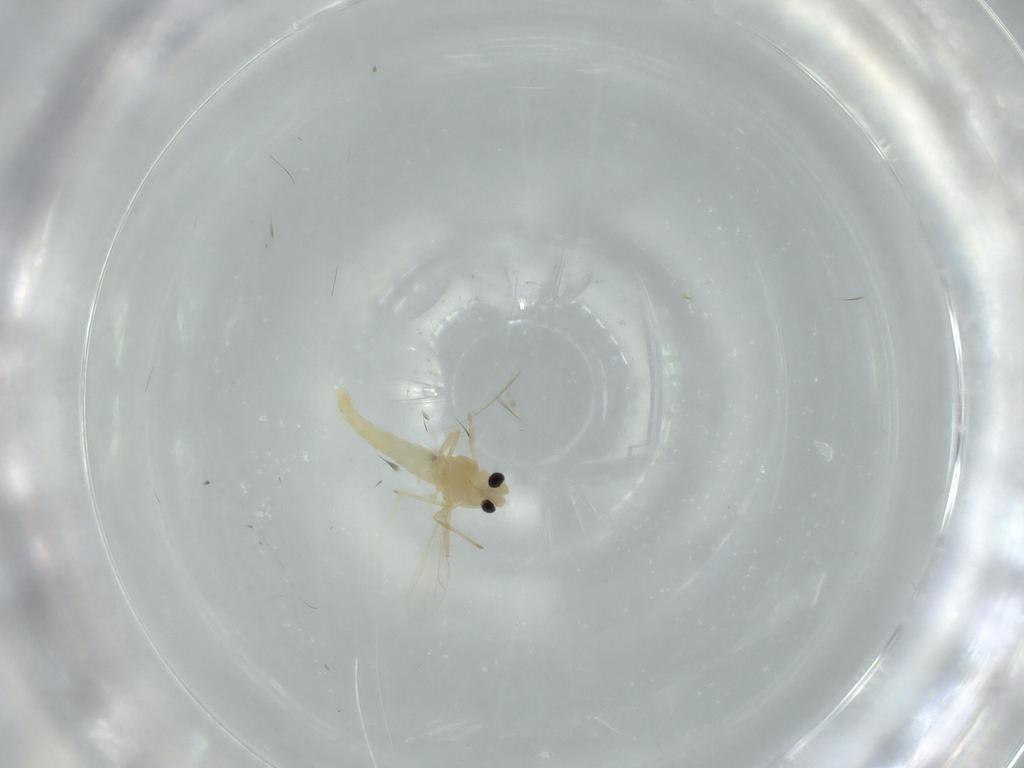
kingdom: Animalia
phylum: Arthropoda
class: Insecta
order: Diptera
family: Chironomidae
